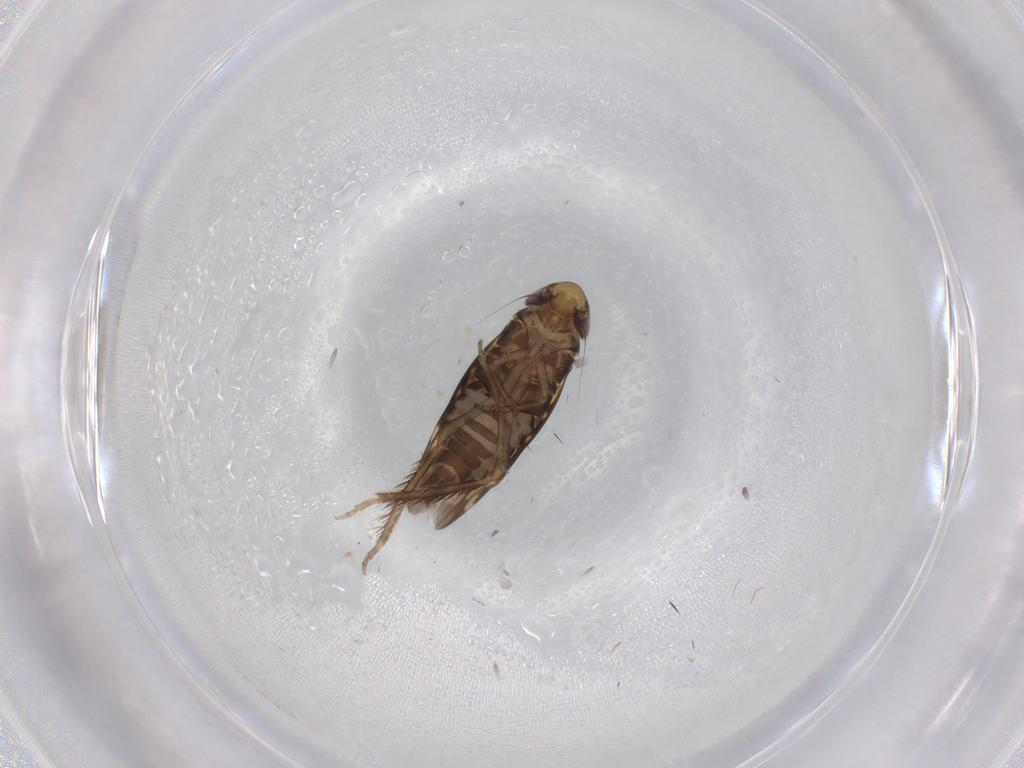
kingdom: Animalia
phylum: Arthropoda
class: Insecta
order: Hemiptera
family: Cicadellidae
